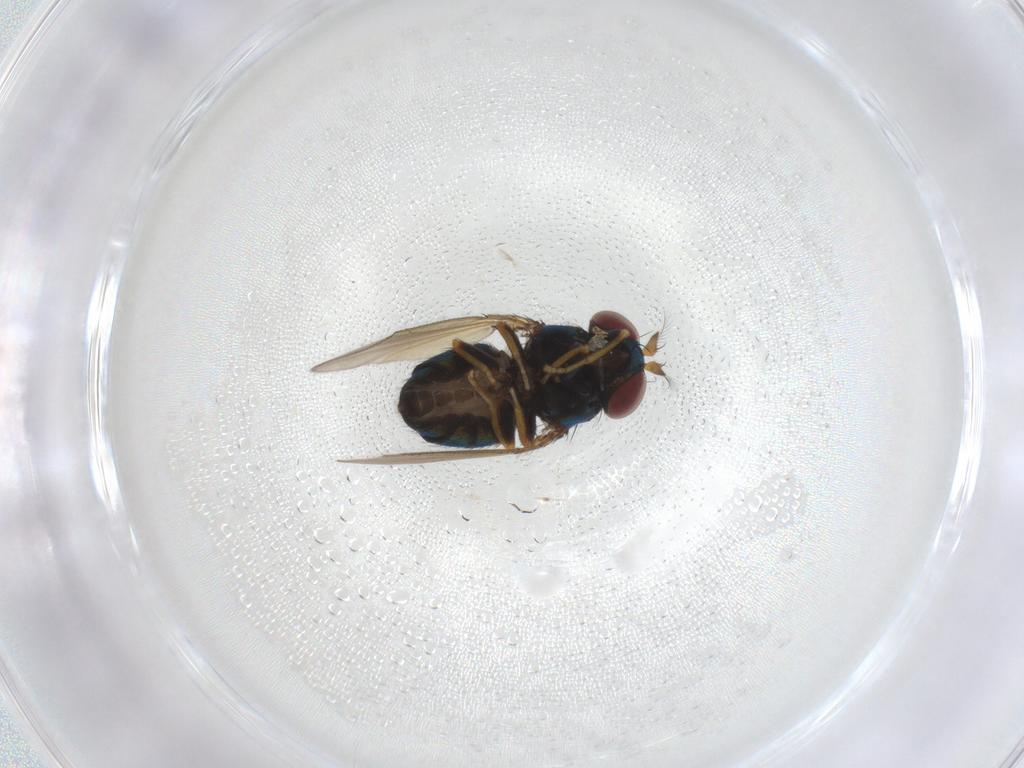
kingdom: Animalia
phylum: Arthropoda
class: Insecta
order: Diptera
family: Ephydridae
